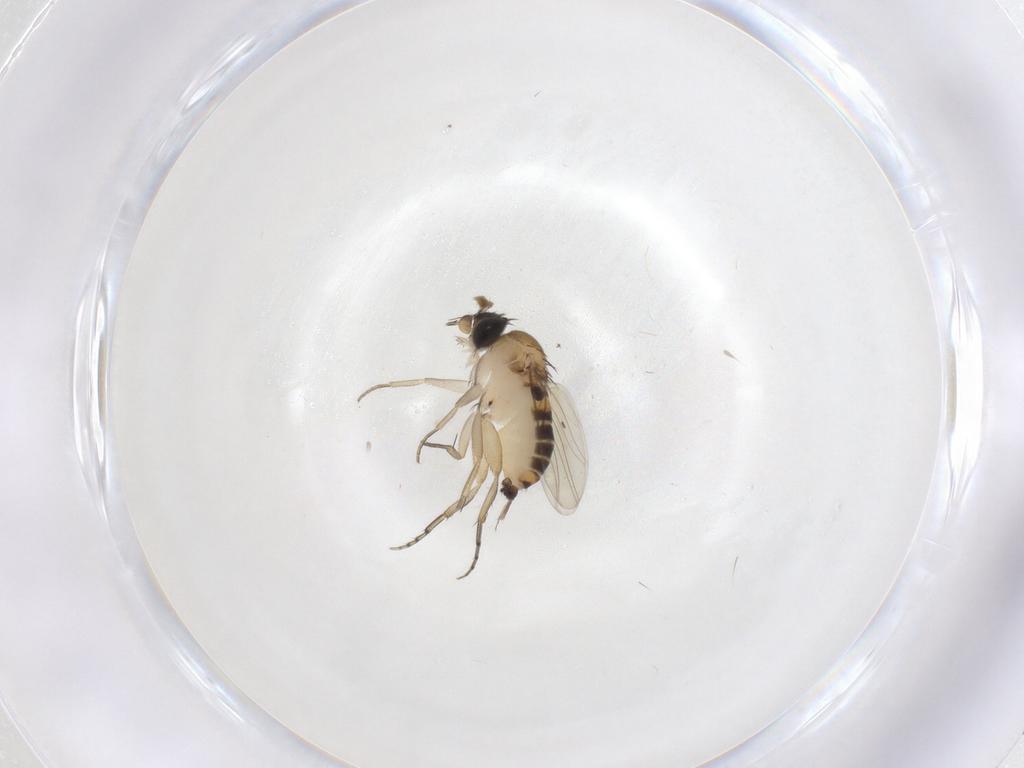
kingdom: Animalia
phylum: Arthropoda
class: Insecta
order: Diptera
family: Phoridae
